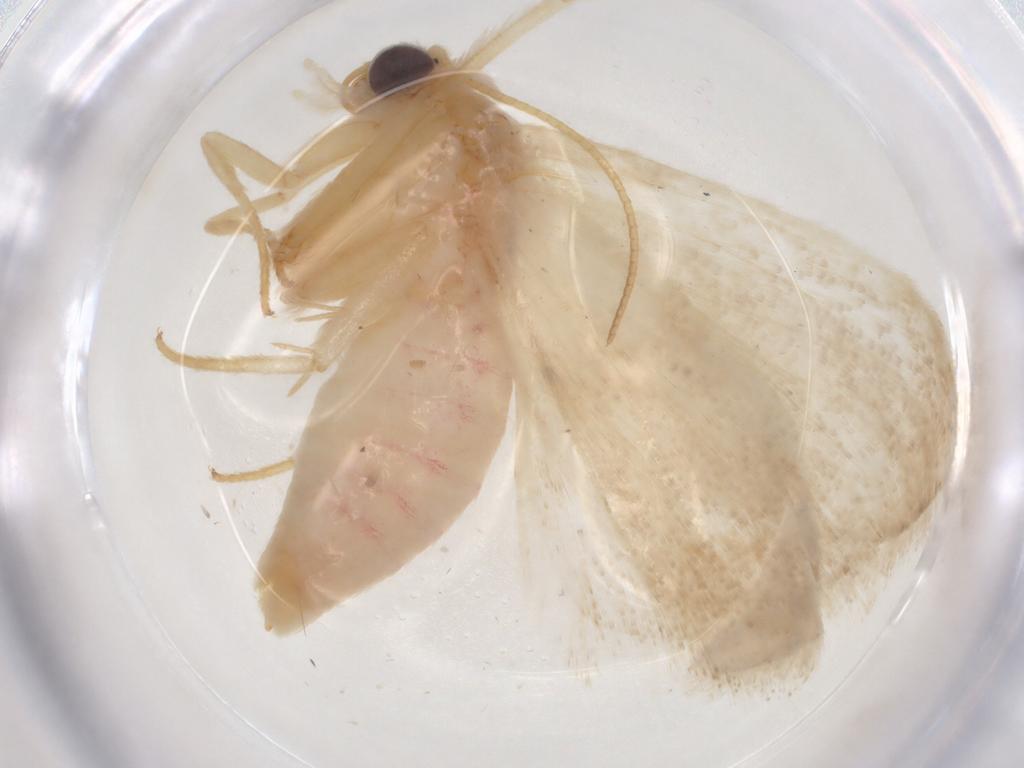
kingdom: Animalia
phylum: Arthropoda
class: Insecta
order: Lepidoptera
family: Erebidae
